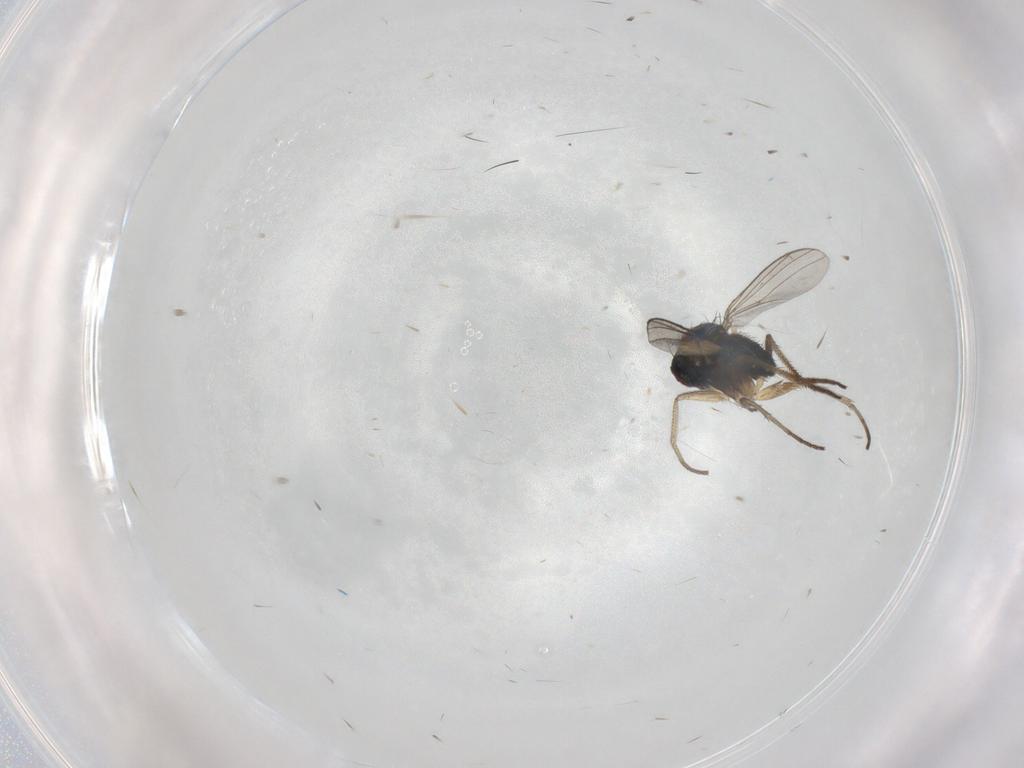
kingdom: Animalia
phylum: Arthropoda
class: Insecta
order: Diptera
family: Dolichopodidae
